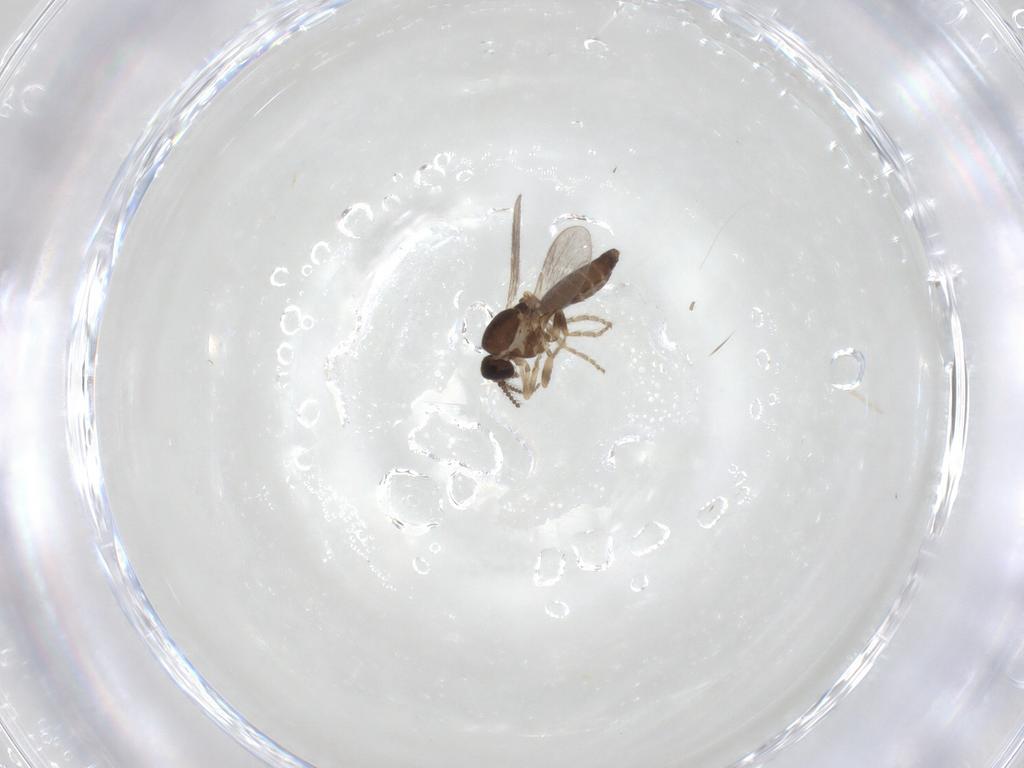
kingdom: Animalia
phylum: Arthropoda
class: Insecta
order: Diptera
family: Ceratopogonidae
